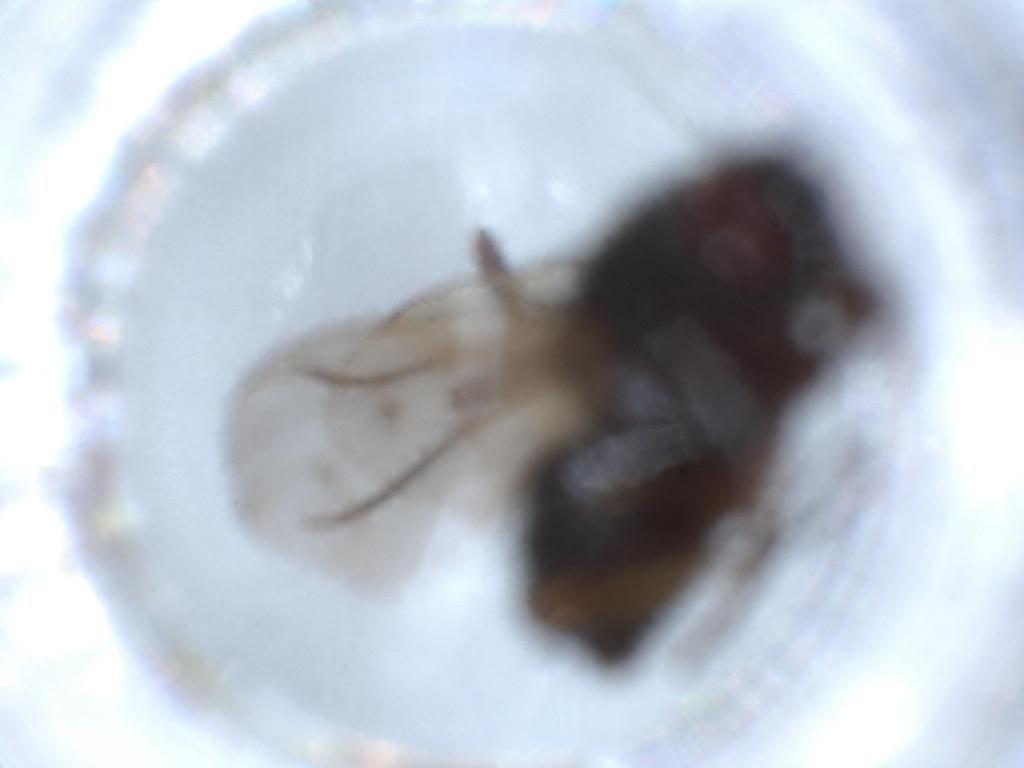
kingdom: Animalia
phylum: Arthropoda
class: Insecta
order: Diptera
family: Muscidae
